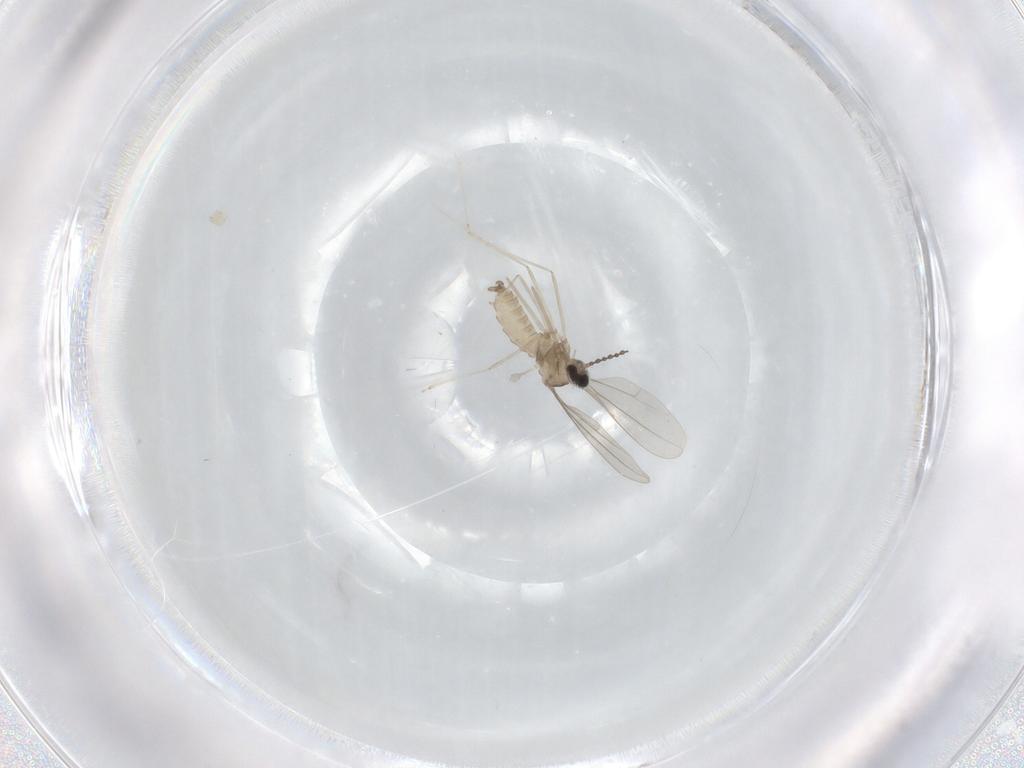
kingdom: Animalia
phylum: Arthropoda
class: Insecta
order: Diptera
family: Cecidomyiidae
